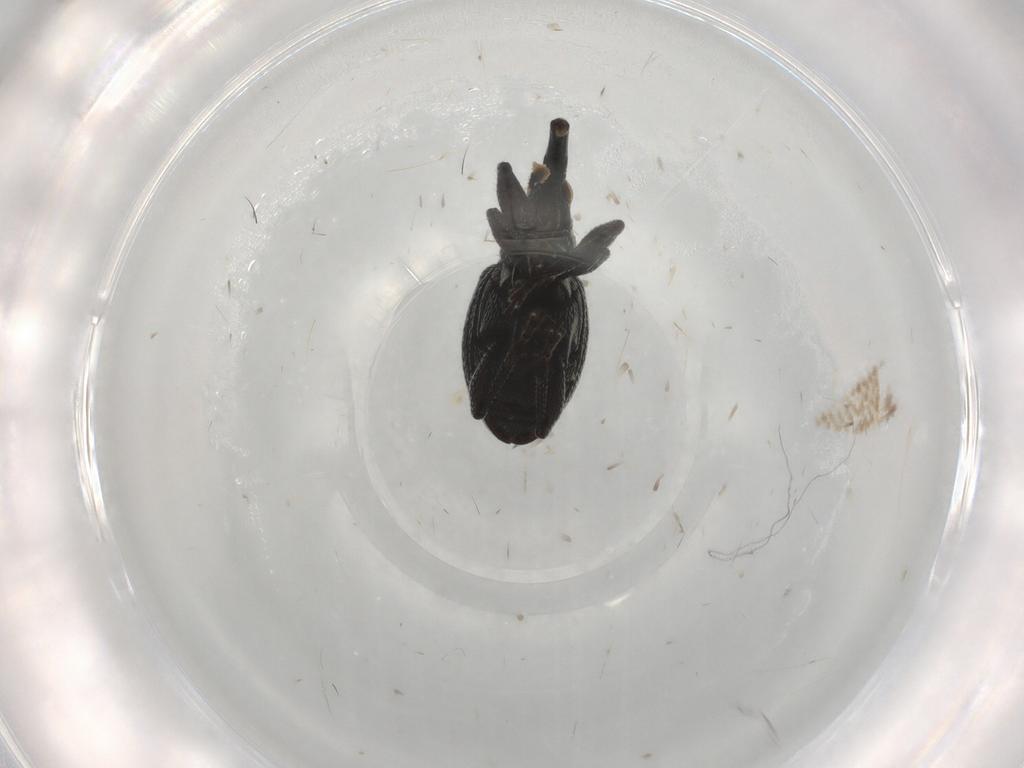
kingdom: Animalia
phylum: Arthropoda
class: Insecta
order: Coleoptera
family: Brentidae
